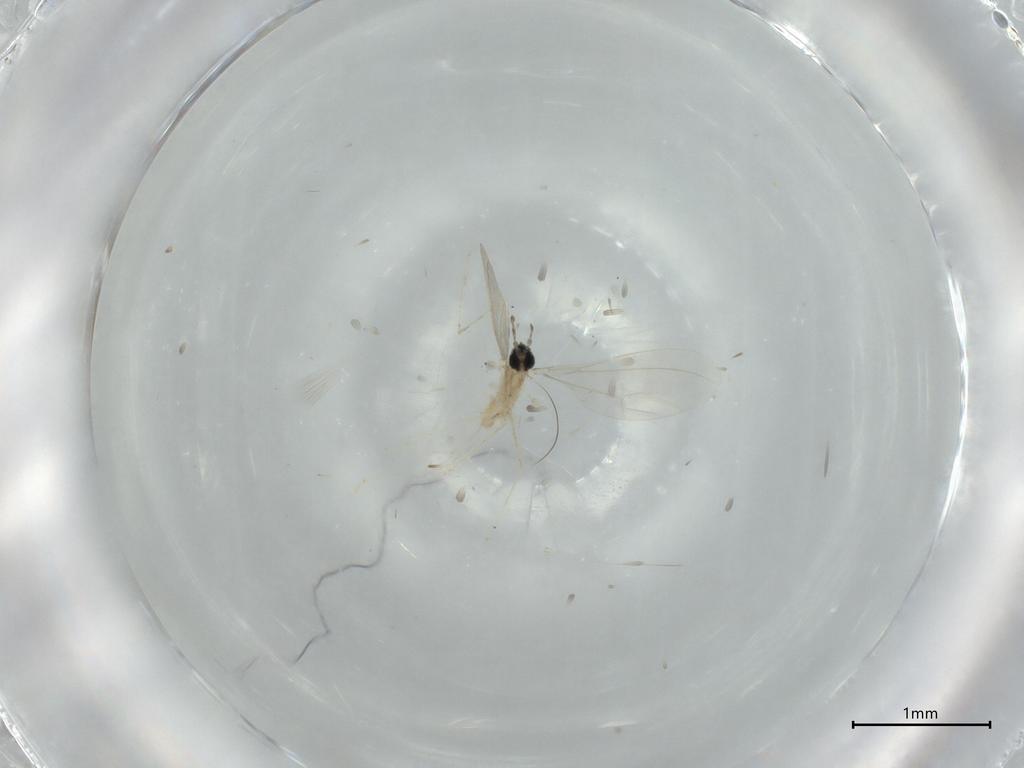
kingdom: Animalia
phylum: Arthropoda
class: Insecta
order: Diptera
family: Cecidomyiidae
